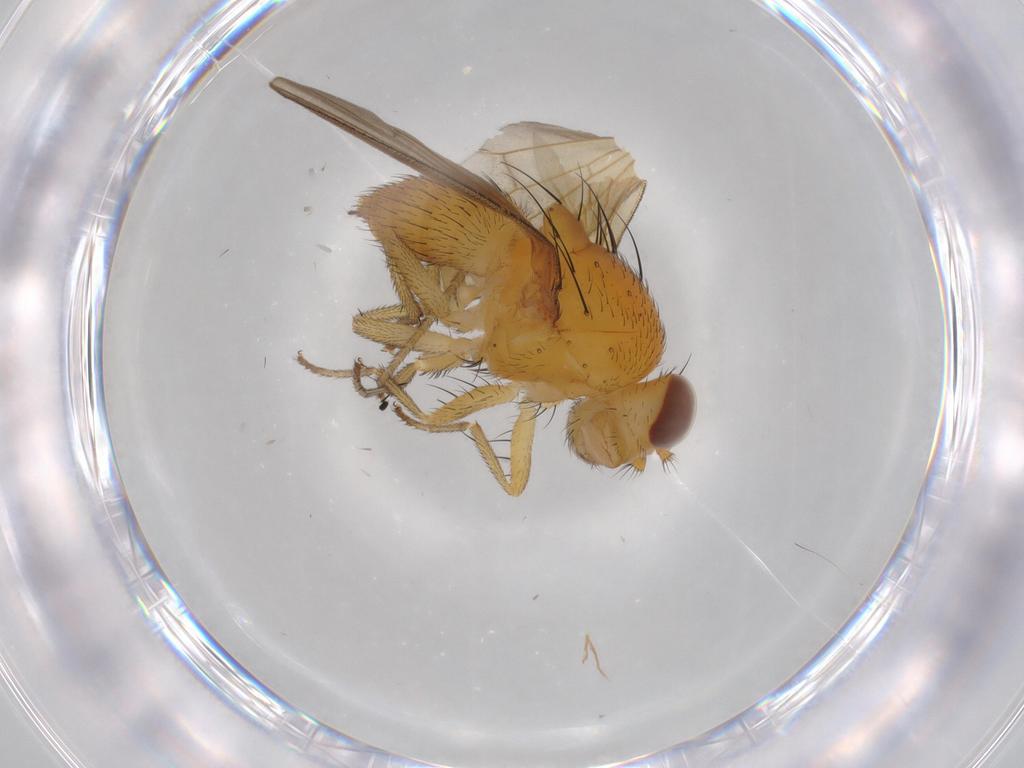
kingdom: Animalia
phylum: Arthropoda
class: Insecta
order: Diptera
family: Lauxaniidae
